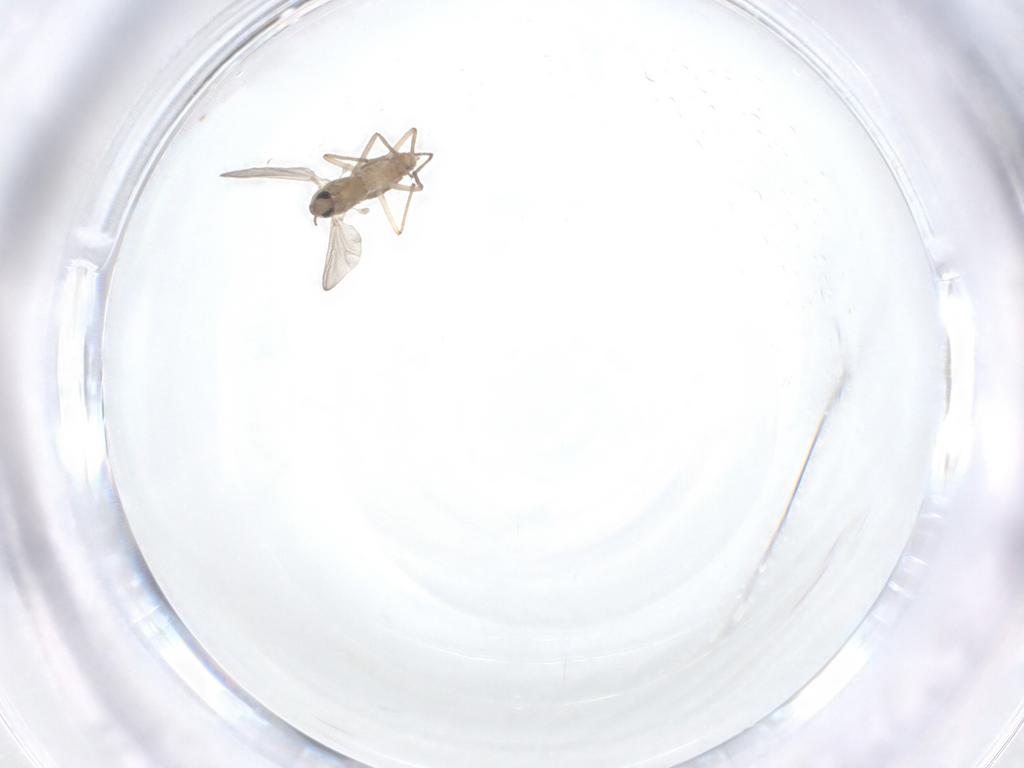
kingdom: Animalia
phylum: Arthropoda
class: Insecta
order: Diptera
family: Chironomidae
